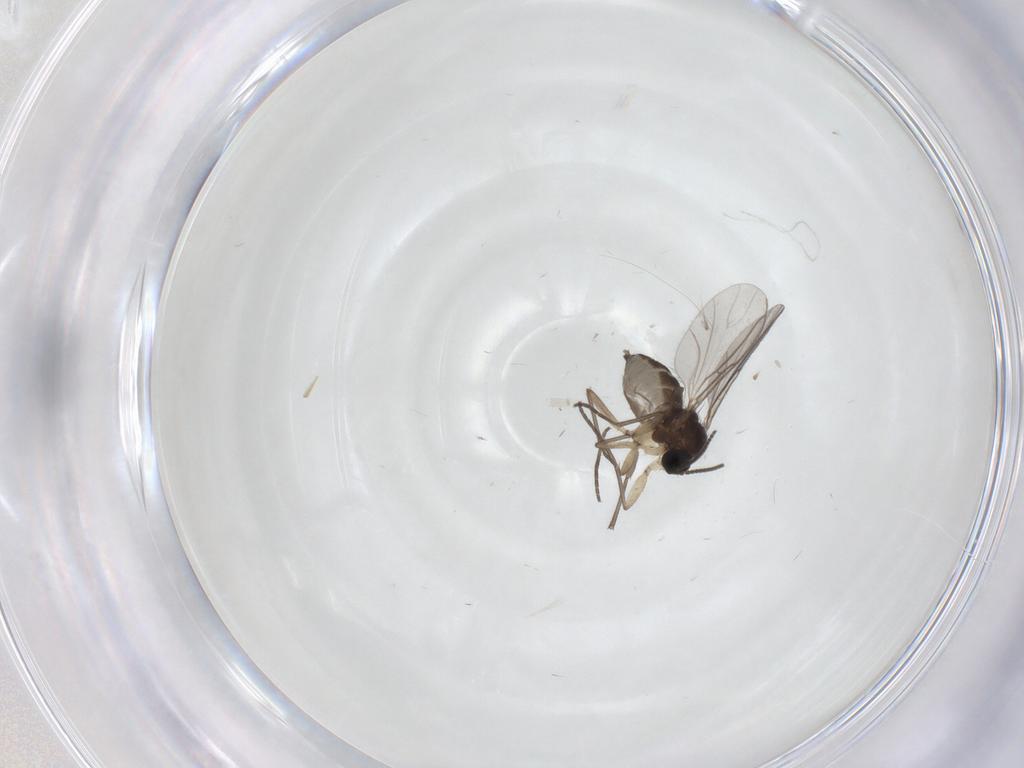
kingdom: Animalia
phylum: Arthropoda
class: Insecta
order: Diptera
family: Sciaridae
